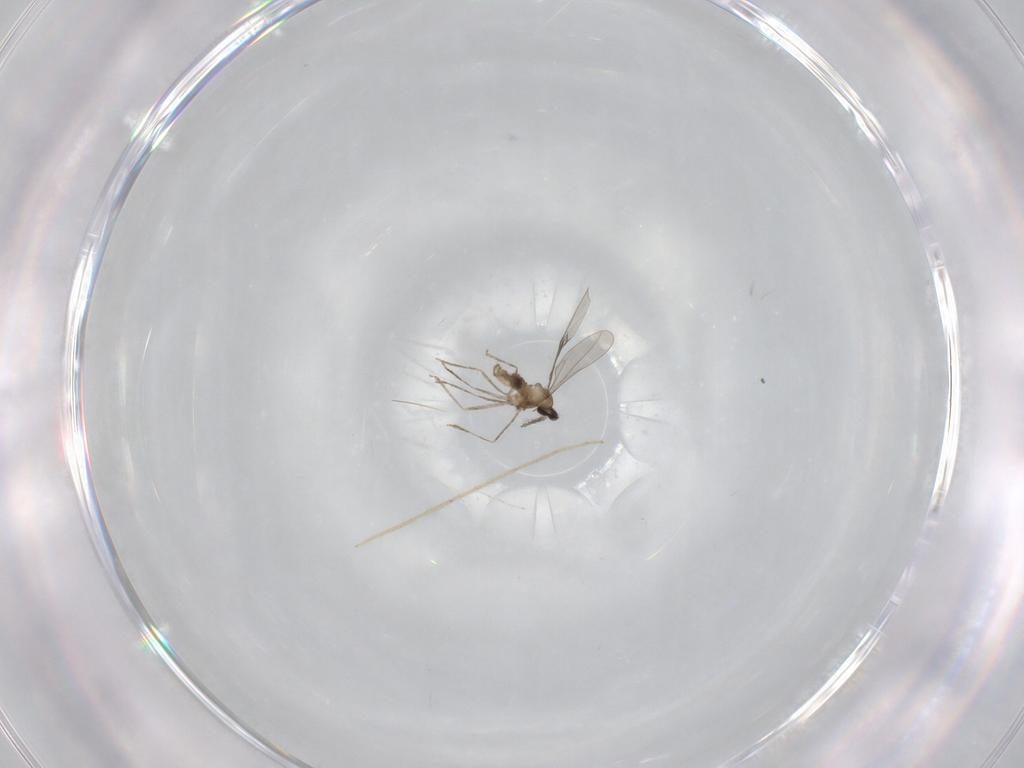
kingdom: Animalia
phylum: Arthropoda
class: Insecta
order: Diptera
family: Chironomidae
